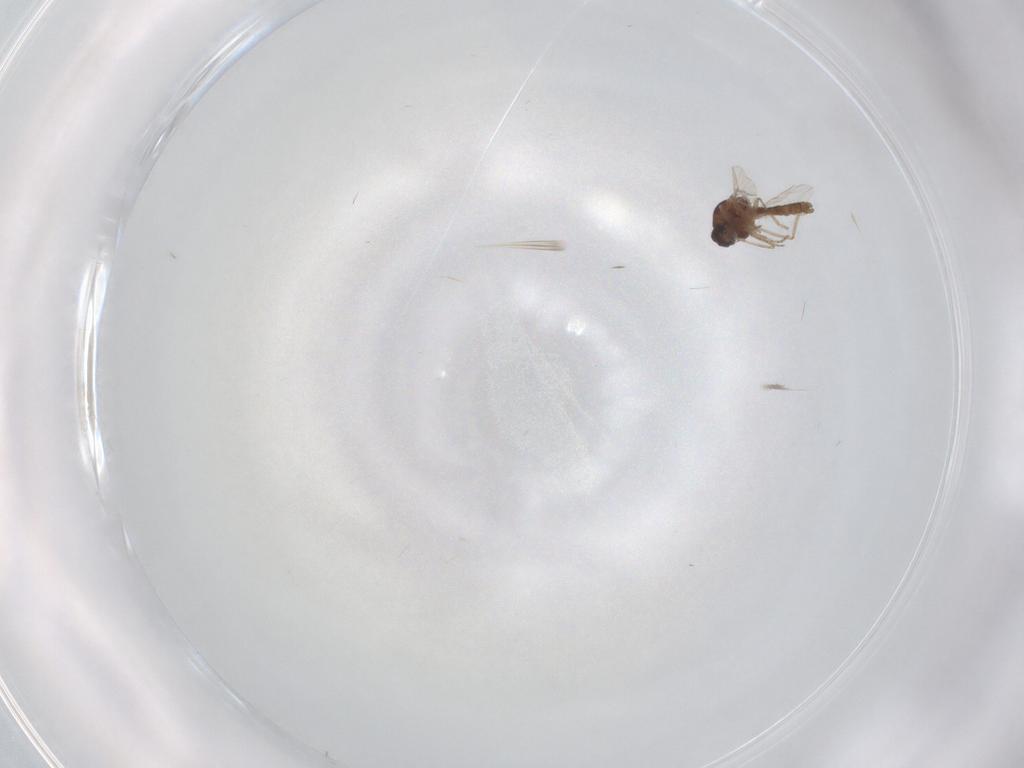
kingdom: Animalia
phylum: Arthropoda
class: Insecta
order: Diptera
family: Ceratopogonidae
